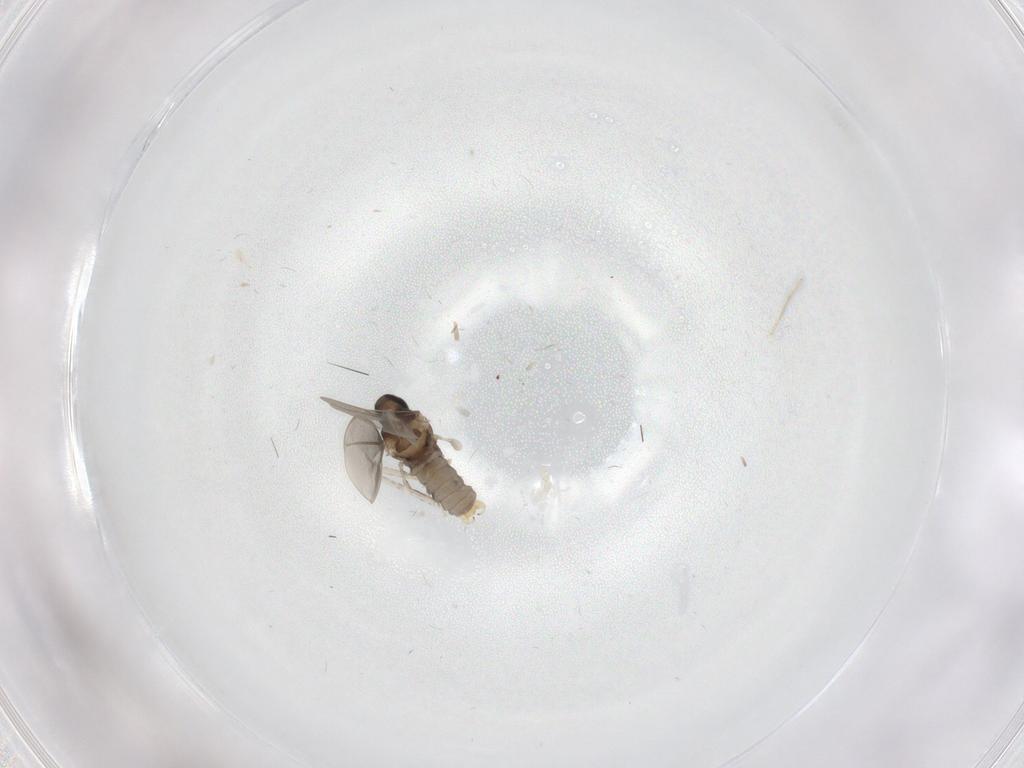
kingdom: Animalia
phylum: Arthropoda
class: Insecta
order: Diptera
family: Cecidomyiidae
